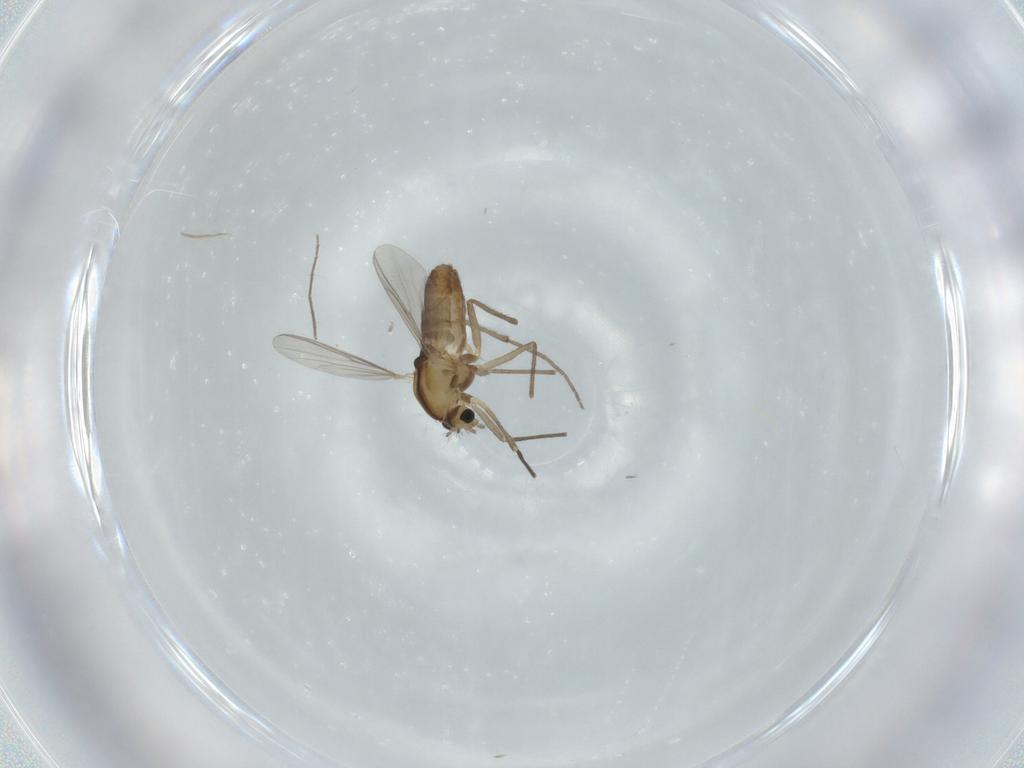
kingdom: Animalia
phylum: Arthropoda
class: Insecta
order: Diptera
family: Chironomidae
